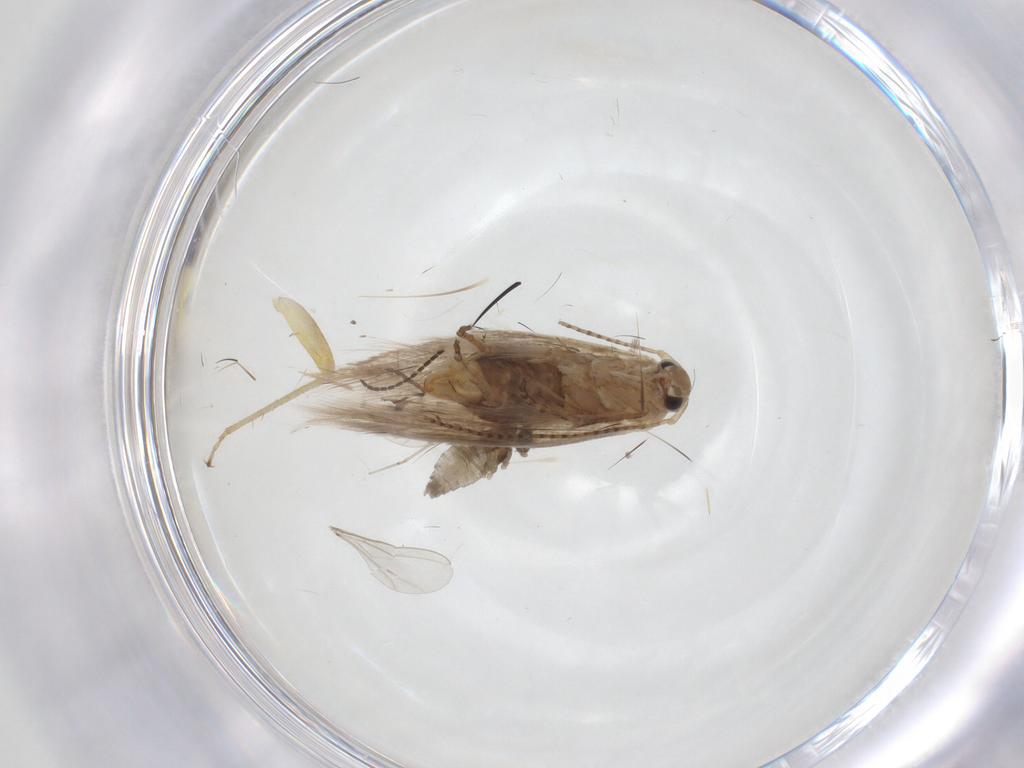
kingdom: Animalia
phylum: Arthropoda
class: Insecta
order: Lepidoptera
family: Bucculatricidae
